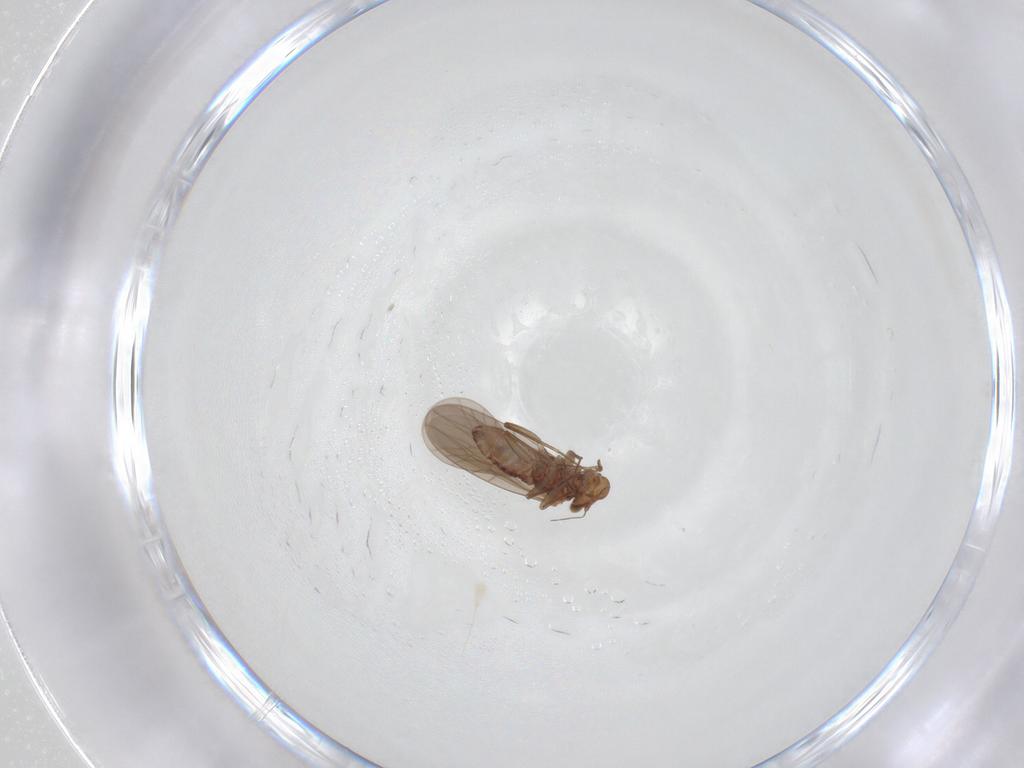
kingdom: Animalia
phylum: Arthropoda
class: Insecta
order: Psocodea
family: Lepidopsocidae
